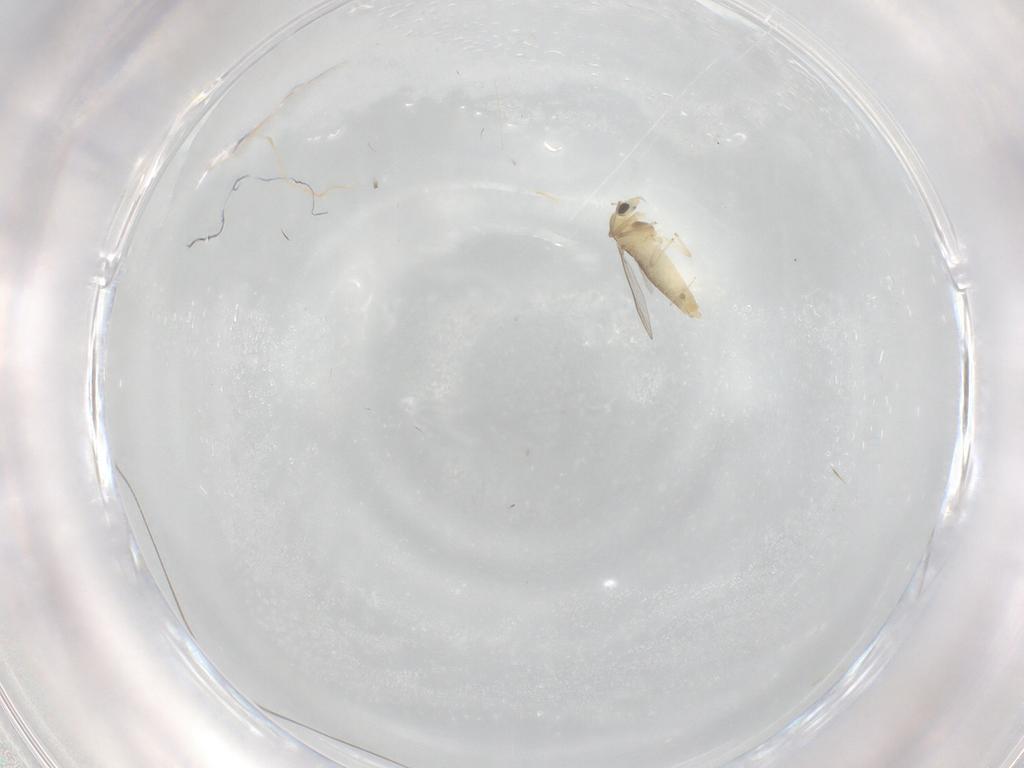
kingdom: Animalia
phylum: Arthropoda
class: Insecta
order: Diptera
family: Chironomidae
